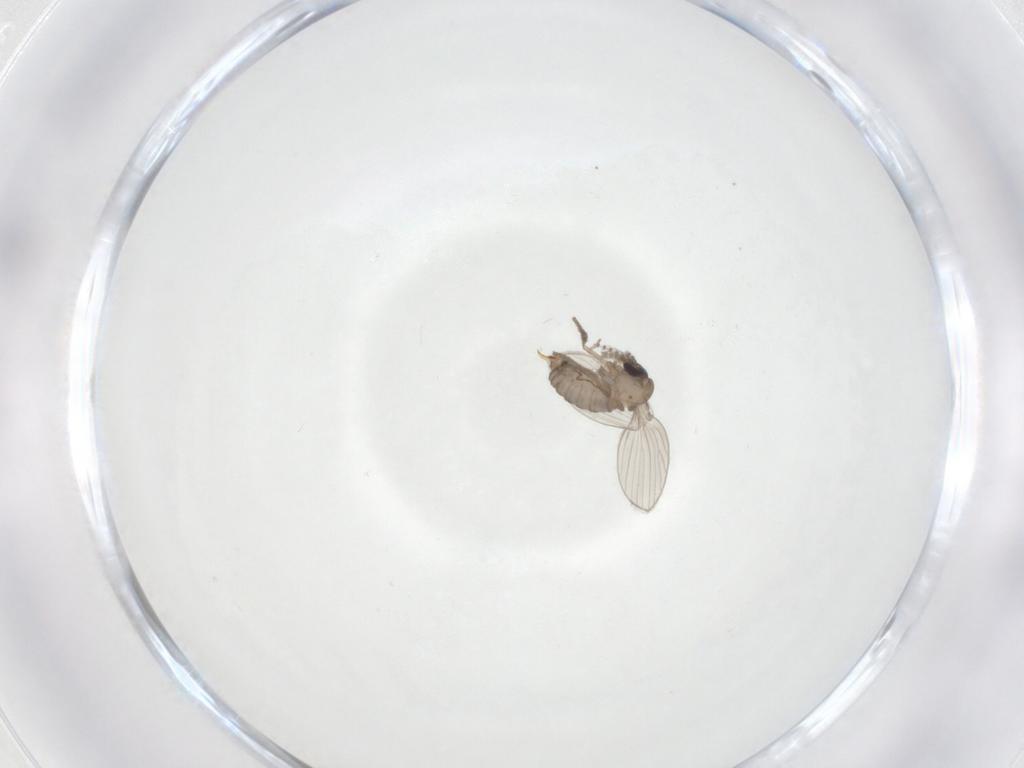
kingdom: Animalia
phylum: Arthropoda
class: Insecta
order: Diptera
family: Psychodidae
